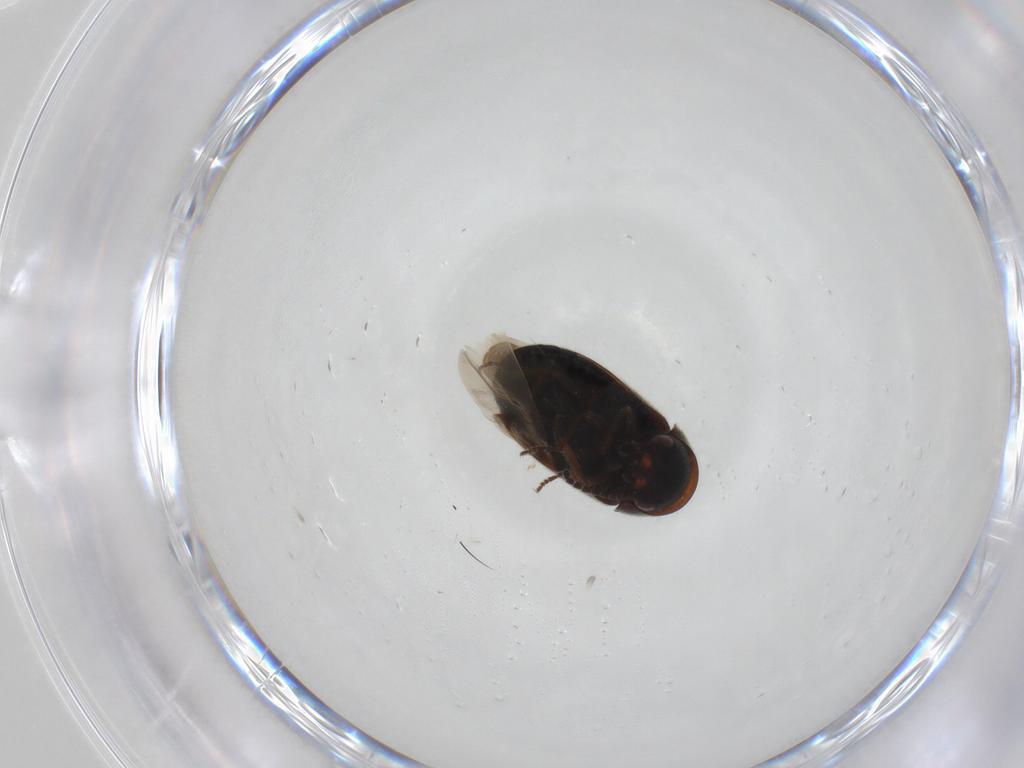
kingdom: Animalia
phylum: Arthropoda
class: Insecta
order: Coleoptera
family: Ptinidae
